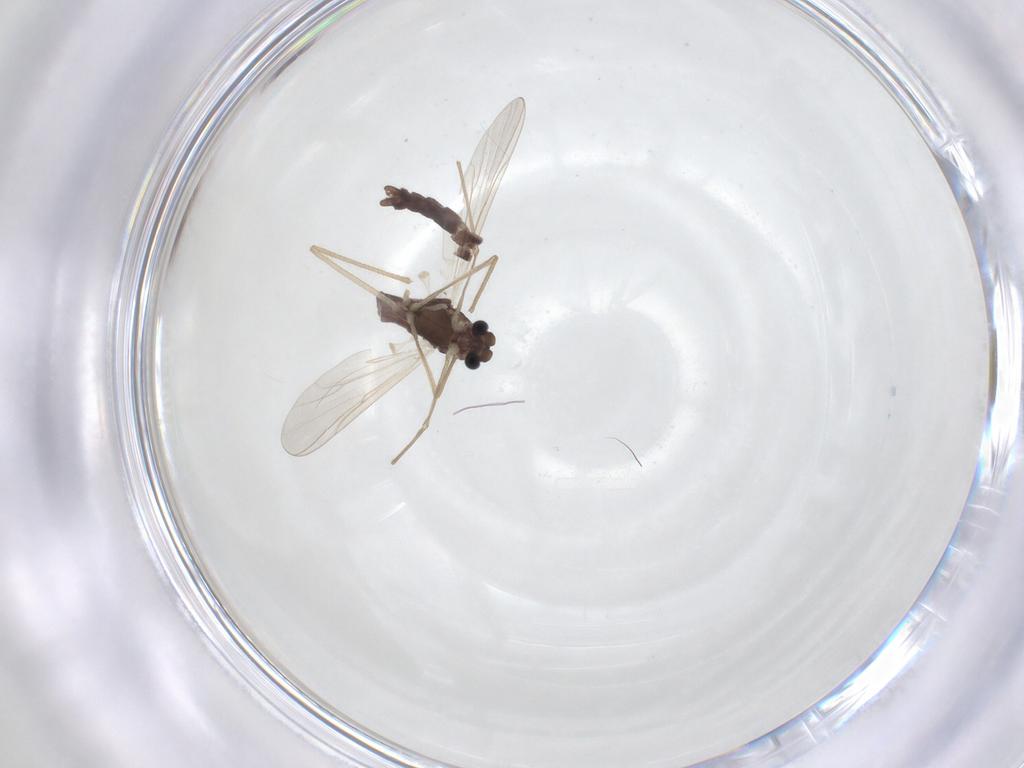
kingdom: Animalia
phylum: Arthropoda
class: Insecta
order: Diptera
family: Chironomidae
